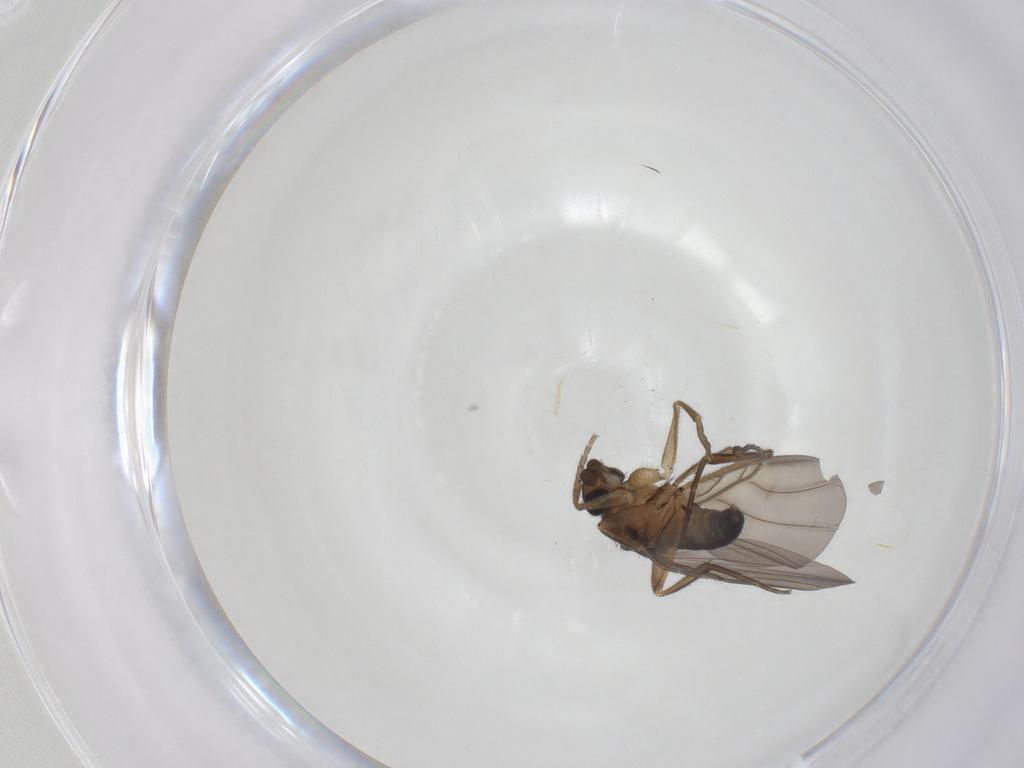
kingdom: Animalia
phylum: Arthropoda
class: Insecta
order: Diptera
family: Phoridae
